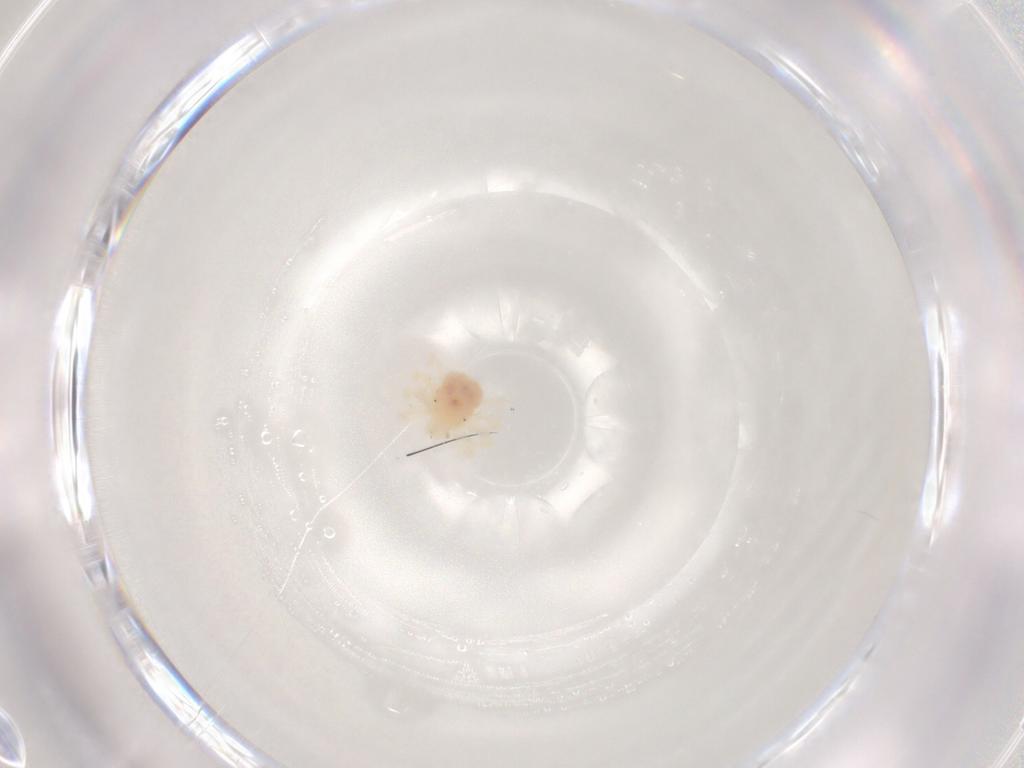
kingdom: Animalia
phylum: Arthropoda
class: Arachnida
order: Trombidiformes
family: Anystidae
